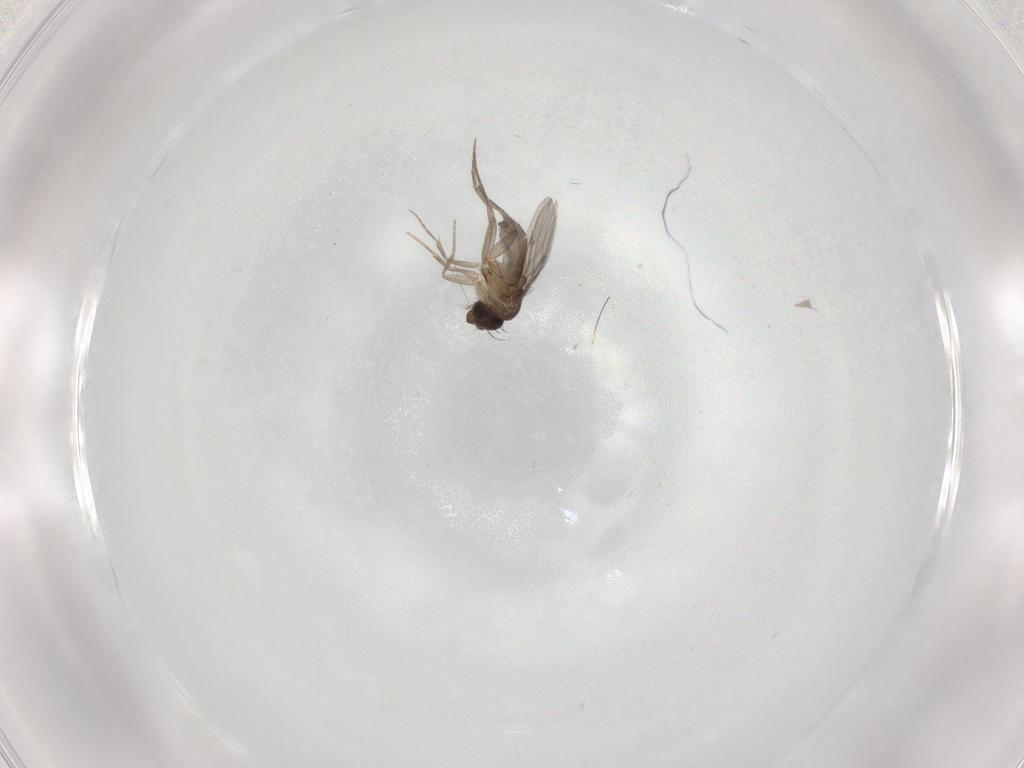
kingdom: Animalia
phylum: Arthropoda
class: Insecta
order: Diptera
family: Phoridae
